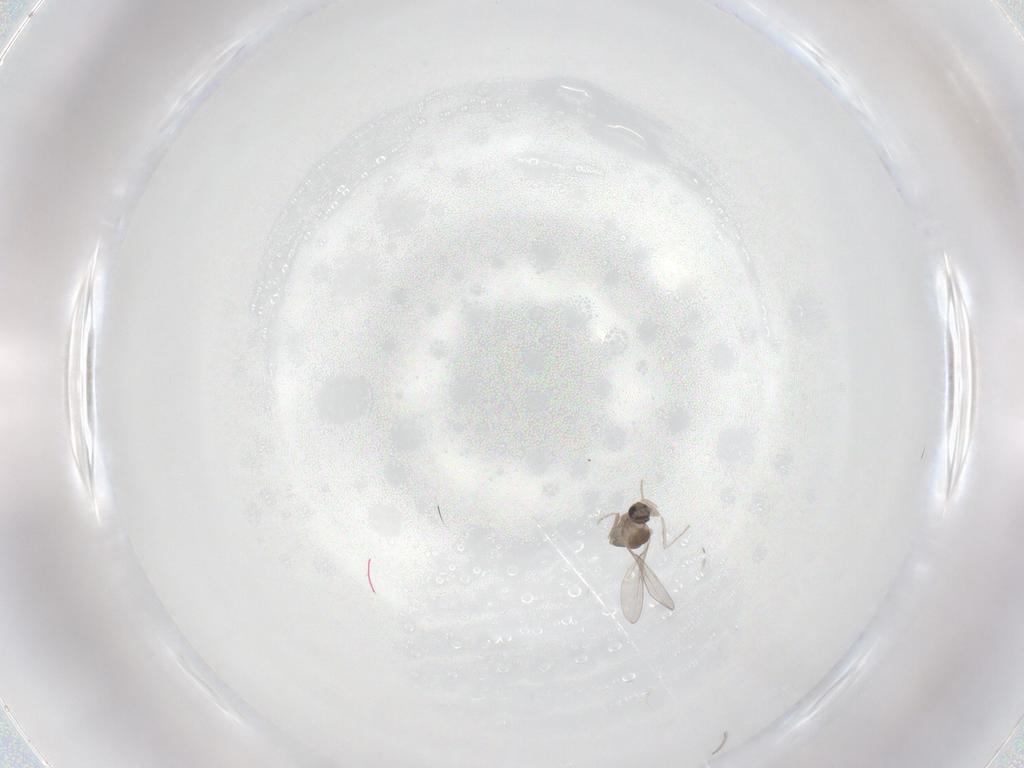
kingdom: Animalia
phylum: Arthropoda
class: Insecta
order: Diptera
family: Cecidomyiidae
